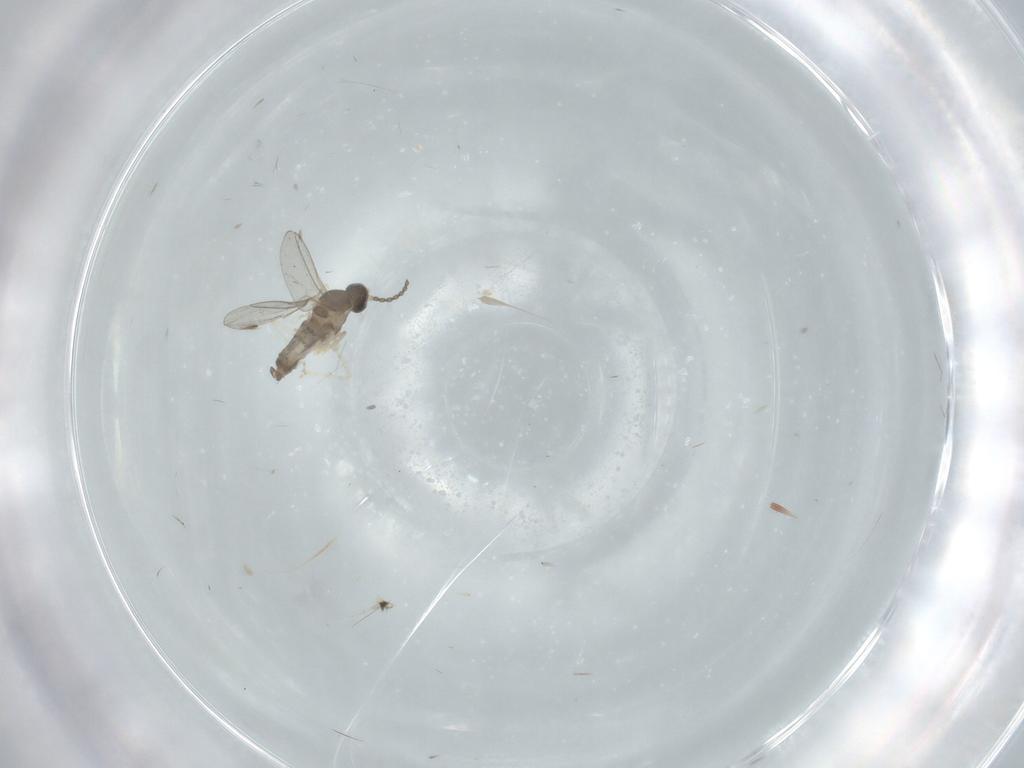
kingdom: Animalia
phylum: Arthropoda
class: Insecta
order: Diptera
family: Cecidomyiidae
